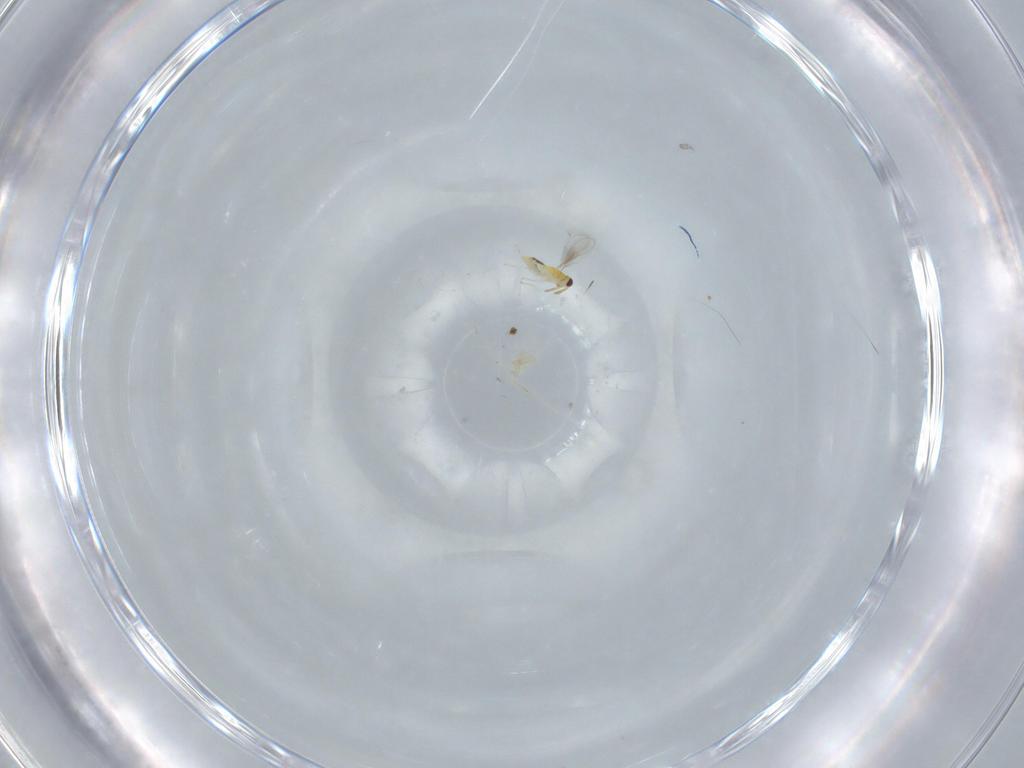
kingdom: Animalia
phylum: Arthropoda
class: Insecta
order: Hymenoptera
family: Aphelinidae
